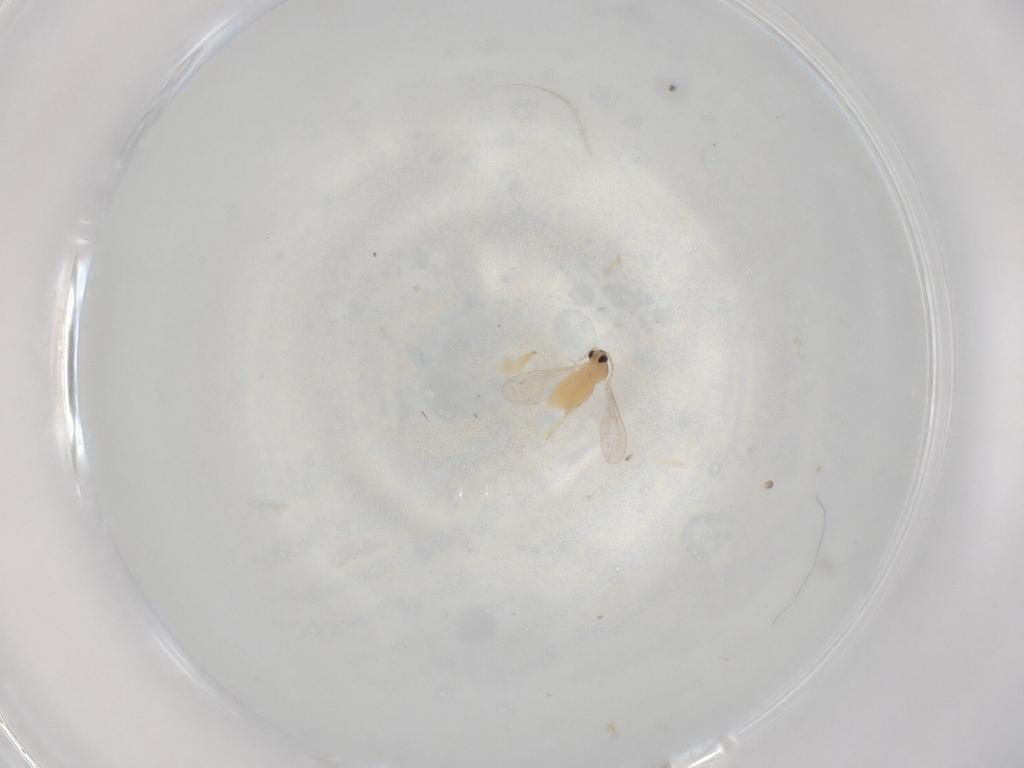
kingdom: Animalia
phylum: Arthropoda
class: Insecta
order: Diptera
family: Cecidomyiidae
